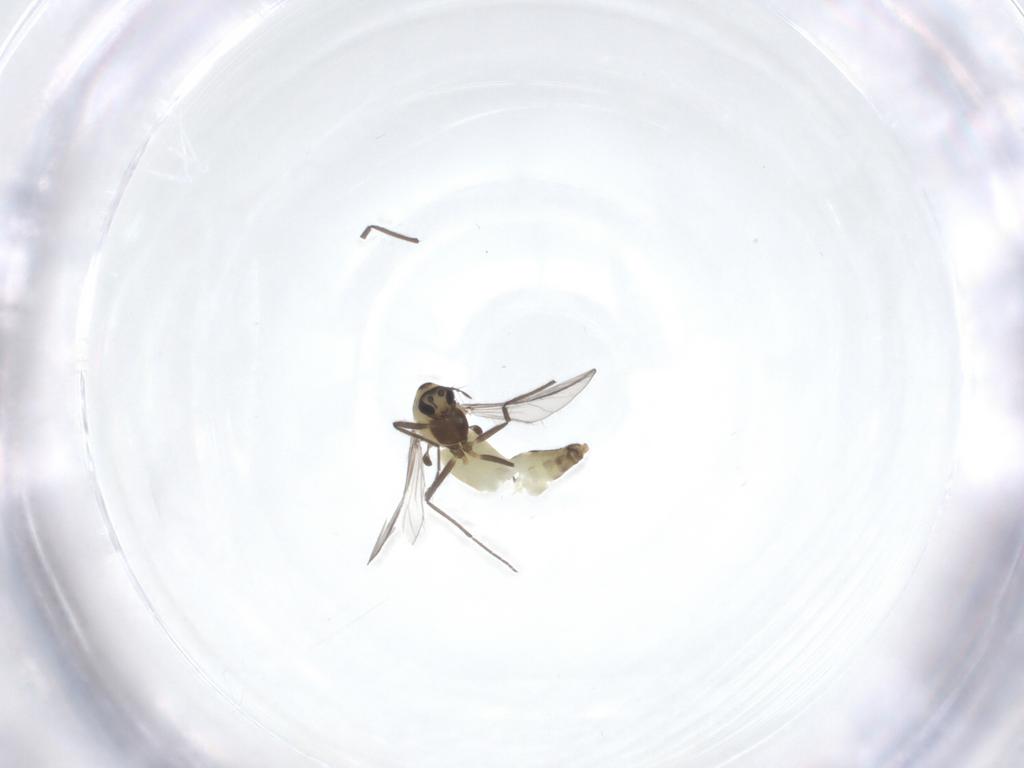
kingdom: Animalia
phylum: Arthropoda
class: Insecta
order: Diptera
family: Chironomidae
